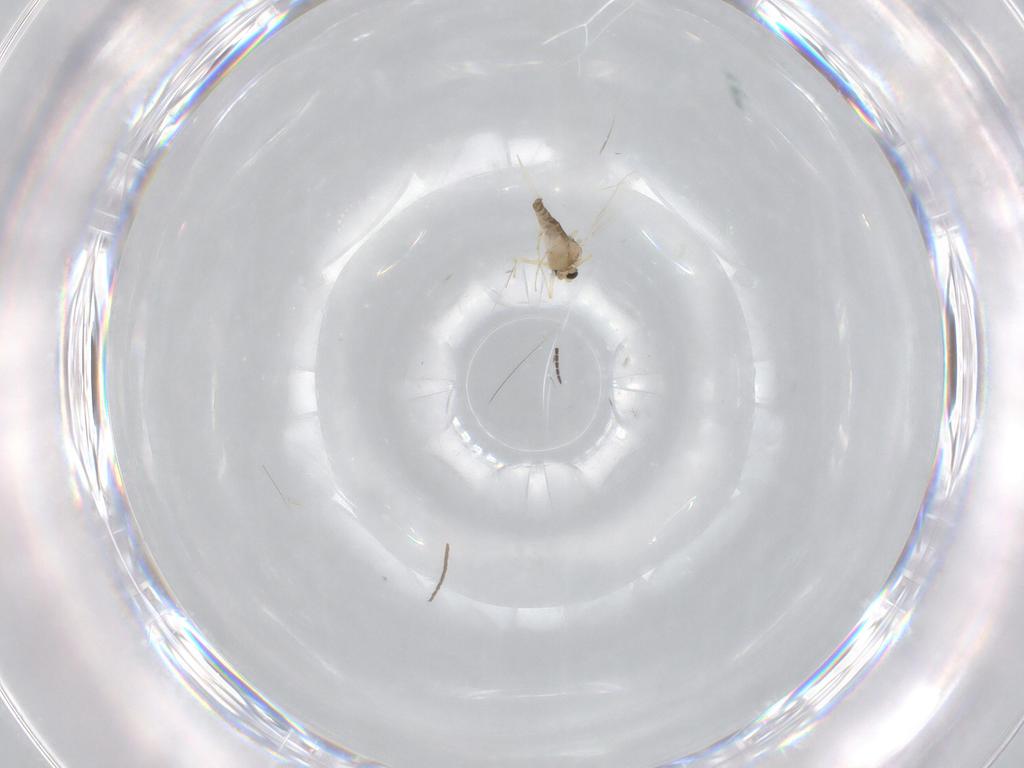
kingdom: Animalia
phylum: Arthropoda
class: Insecta
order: Diptera
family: Chironomidae
